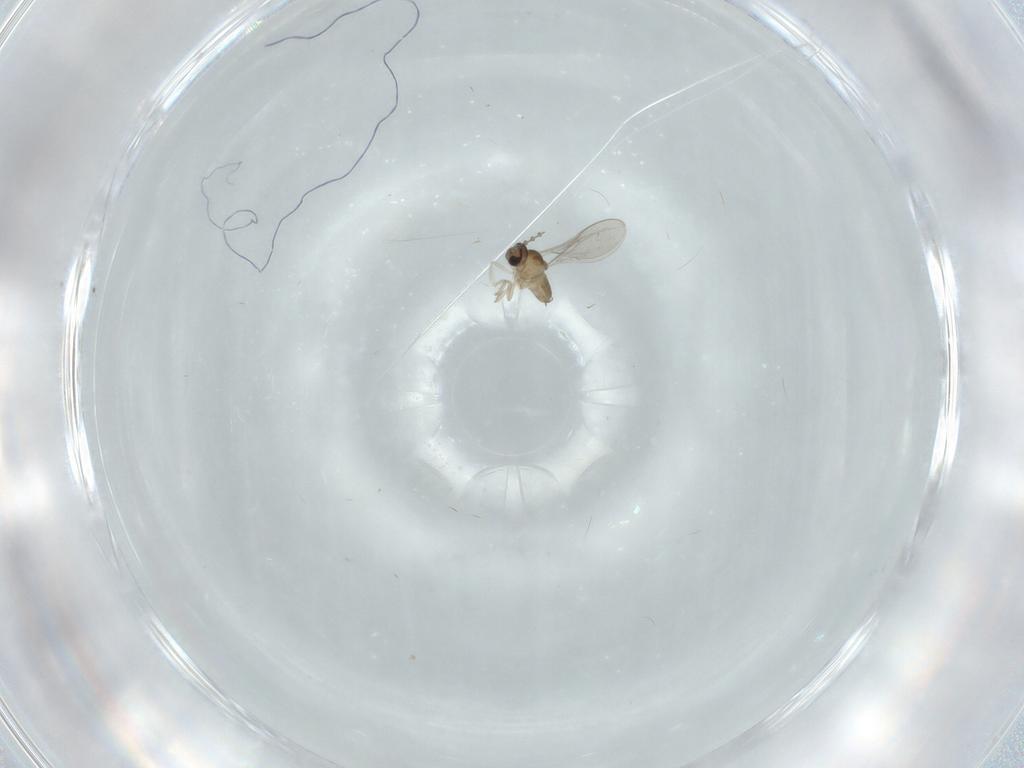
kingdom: Animalia
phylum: Arthropoda
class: Insecta
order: Diptera
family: Cecidomyiidae
